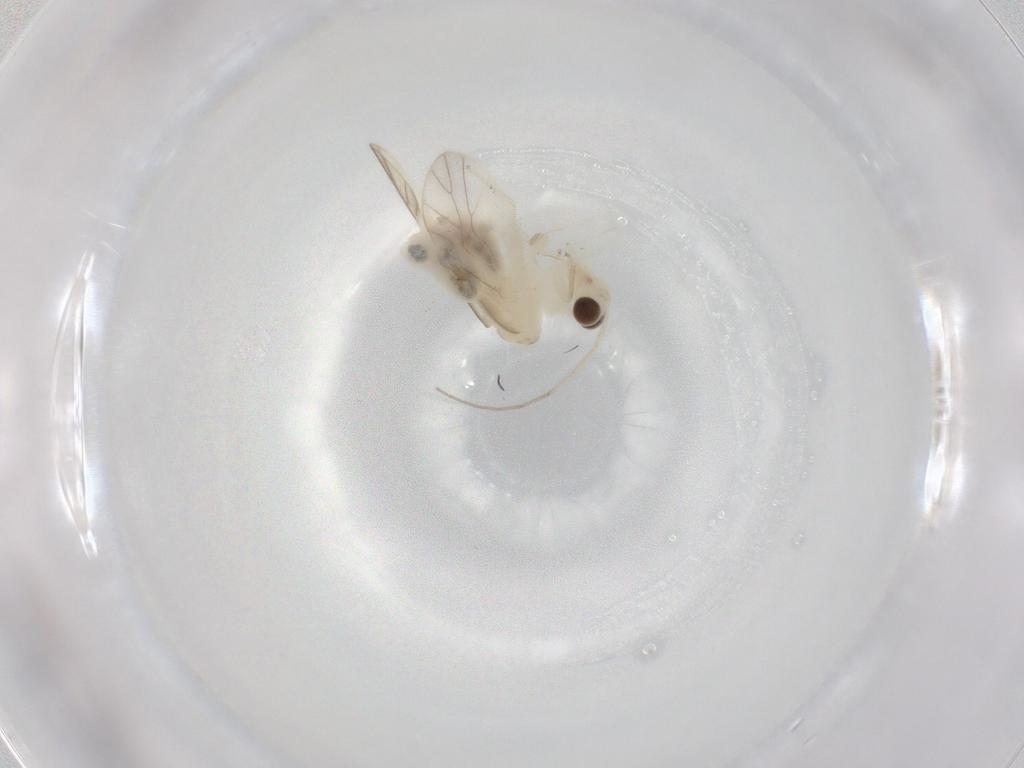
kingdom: Animalia
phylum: Arthropoda
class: Insecta
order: Psocodea
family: Caeciliusidae
